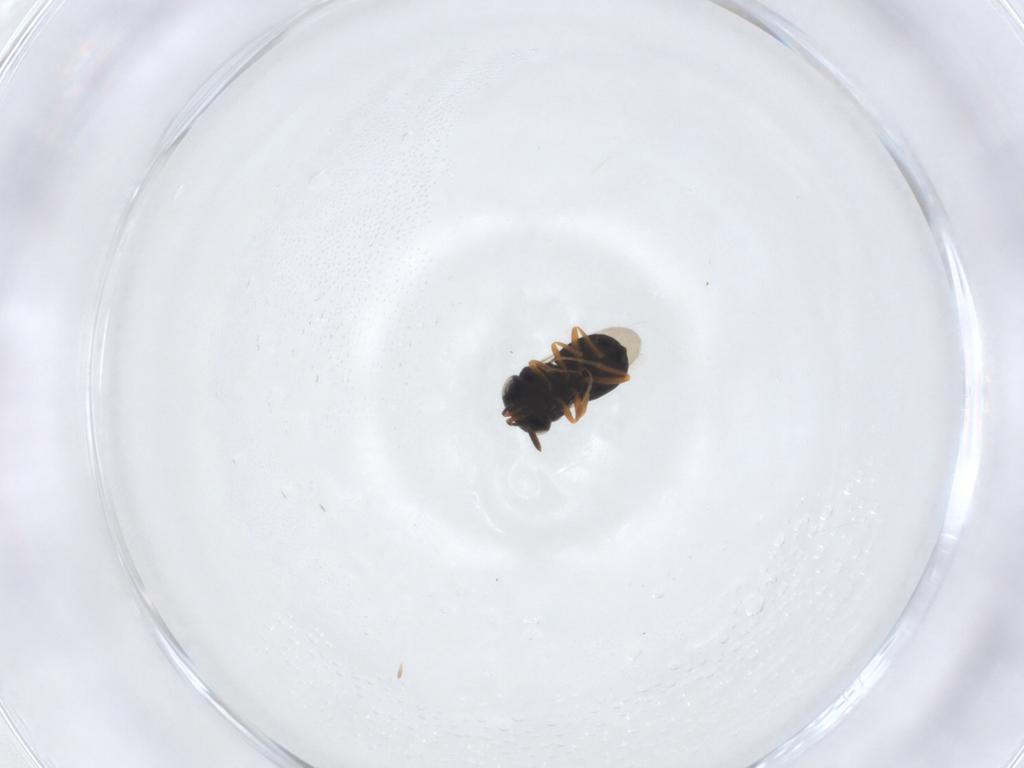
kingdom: Animalia
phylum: Arthropoda
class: Insecta
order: Hymenoptera
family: Scelionidae
